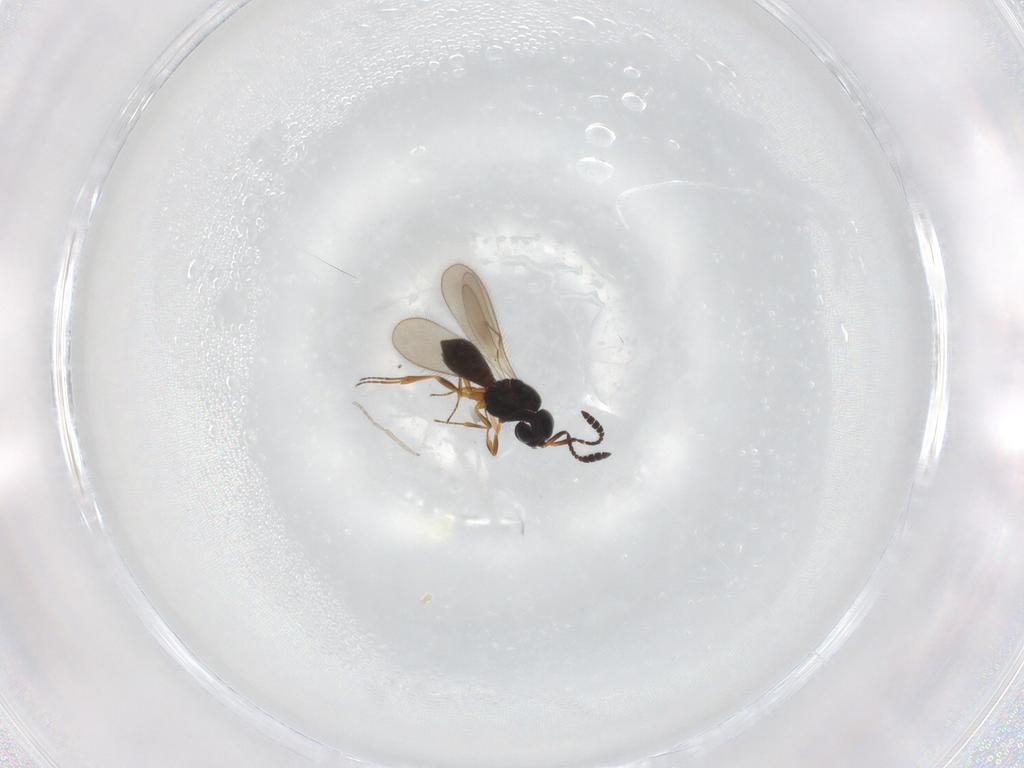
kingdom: Animalia
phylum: Arthropoda
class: Insecta
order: Hymenoptera
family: Scelionidae
